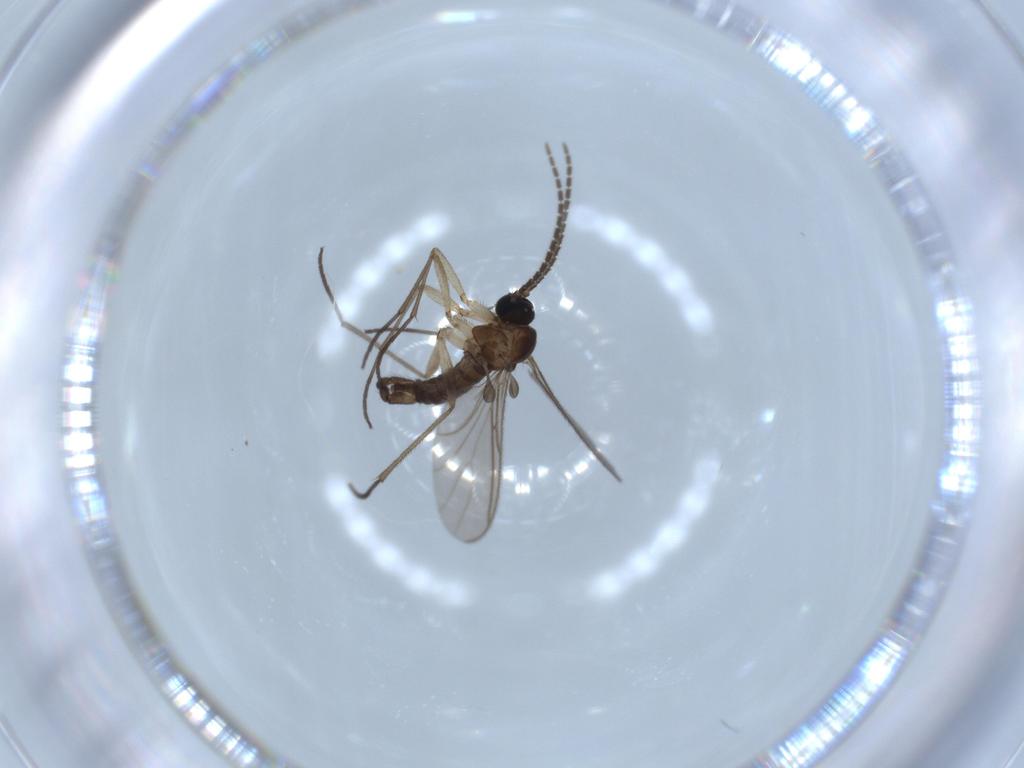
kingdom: Animalia
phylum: Arthropoda
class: Insecta
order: Diptera
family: Sciaridae
